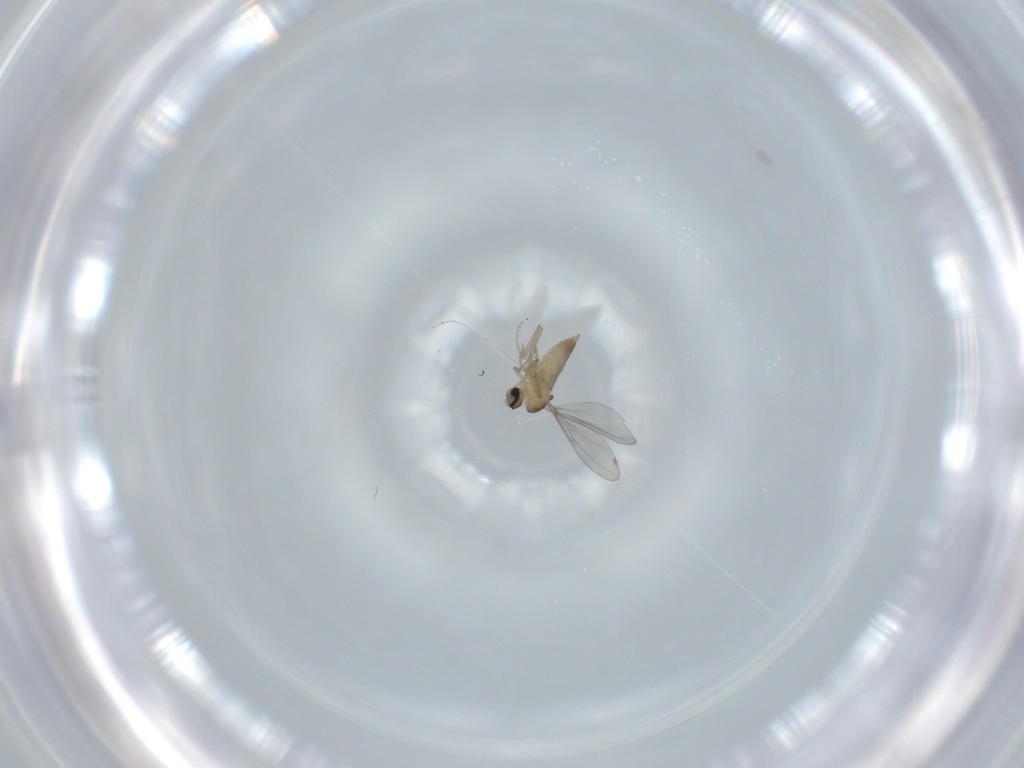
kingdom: Animalia
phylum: Arthropoda
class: Insecta
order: Diptera
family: Cecidomyiidae
